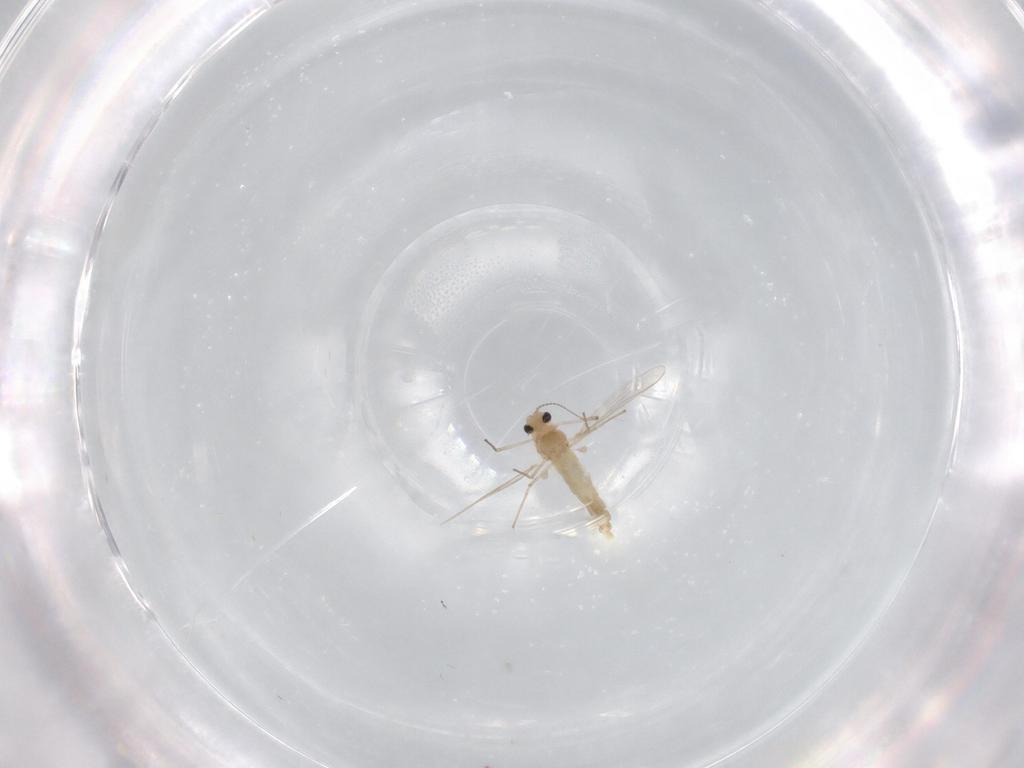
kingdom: Animalia
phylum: Arthropoda
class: Insecta
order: Diptera
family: Chironomidae
